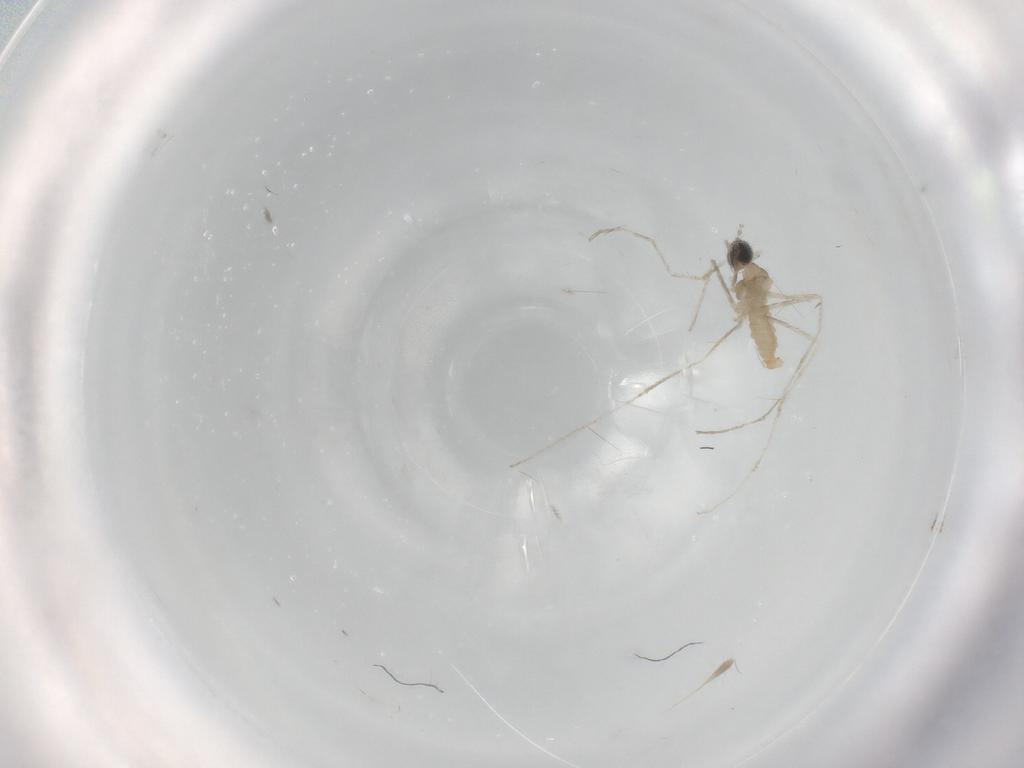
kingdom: Animalia
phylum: Arthropoda
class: Insecta
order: Diptera
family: Cecidomyiidae
